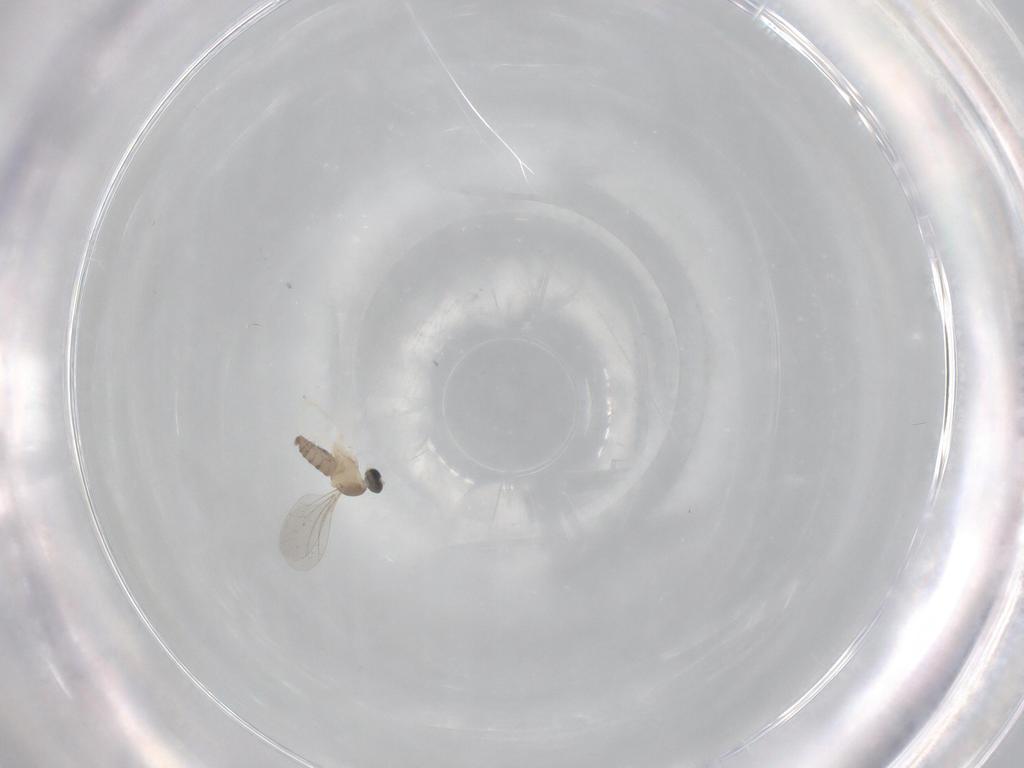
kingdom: Animalia
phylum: Arthropoda
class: Insecta
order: Diptera
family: Cecidomyiidae
